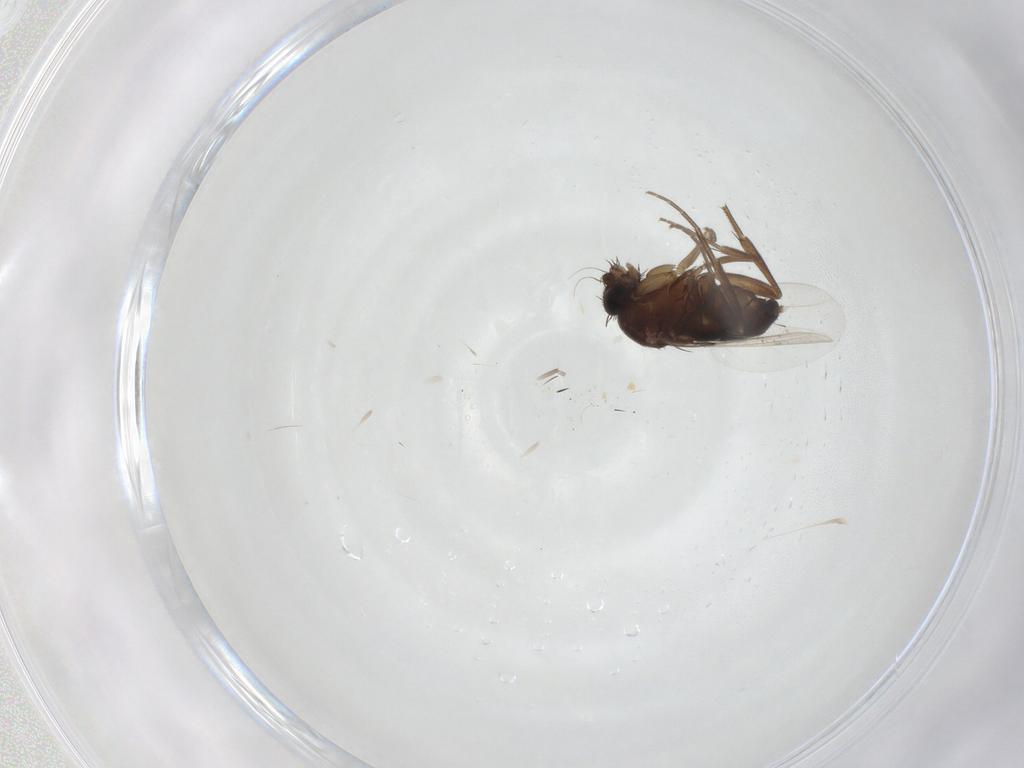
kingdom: Animalia
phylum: Arthropoda
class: Insecta
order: Diptera
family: Phoridae
